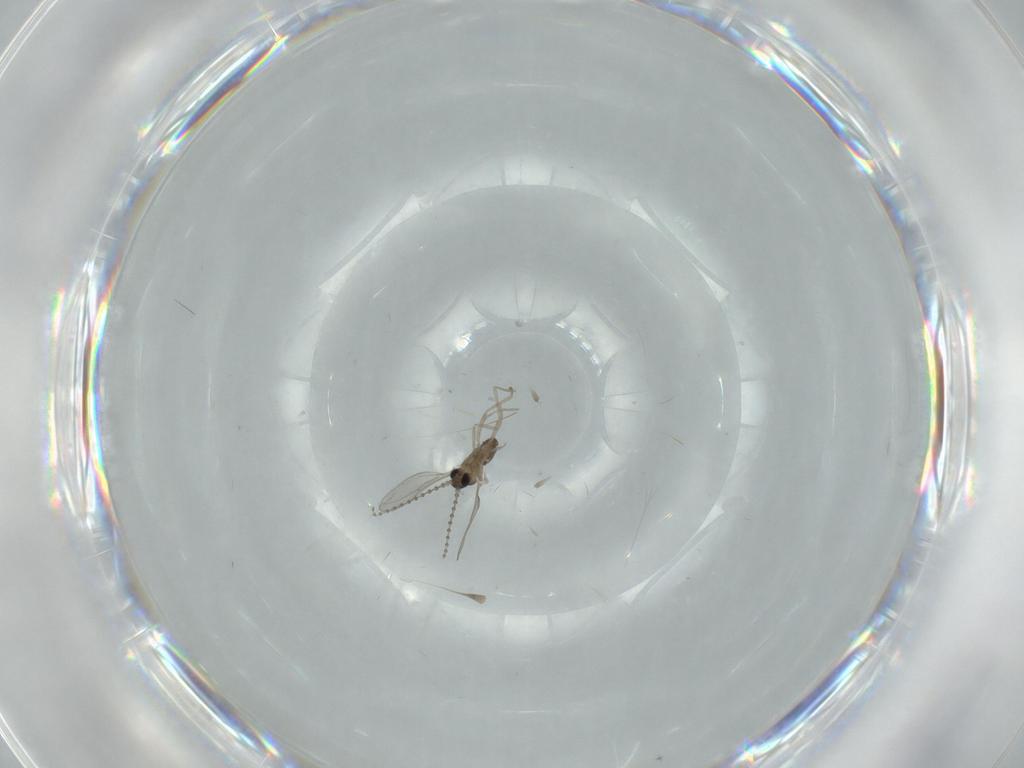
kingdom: Animalia
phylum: Arthropoda
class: Insecta
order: Diptera
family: Cecidomyiidae
